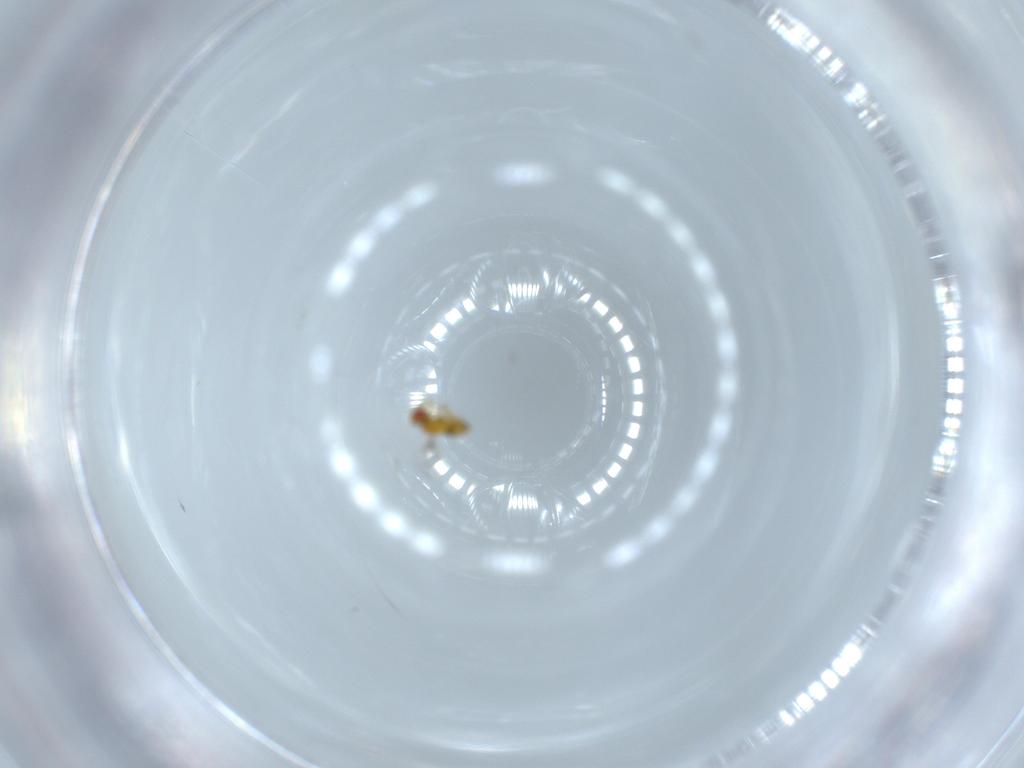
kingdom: Animalia
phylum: Arthropoda
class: Insecta
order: Hymenoptera
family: Trichogrammatidae
